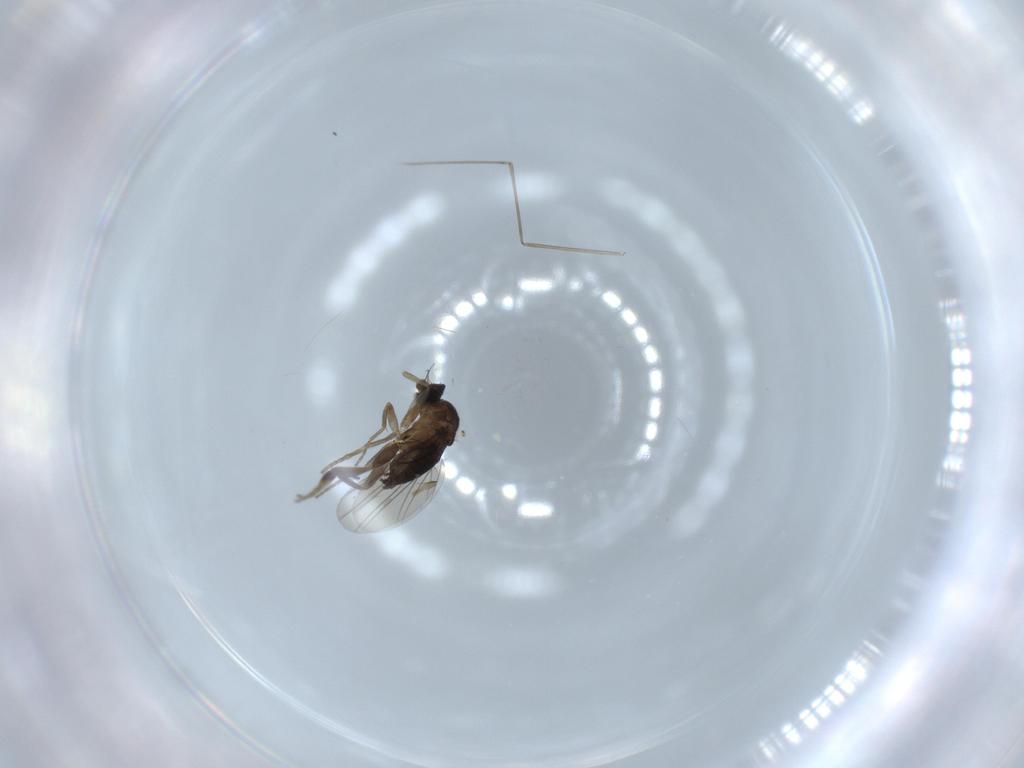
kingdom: Animalia
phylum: Arthropoda
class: Insecta
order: Diptera
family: Phoridae
